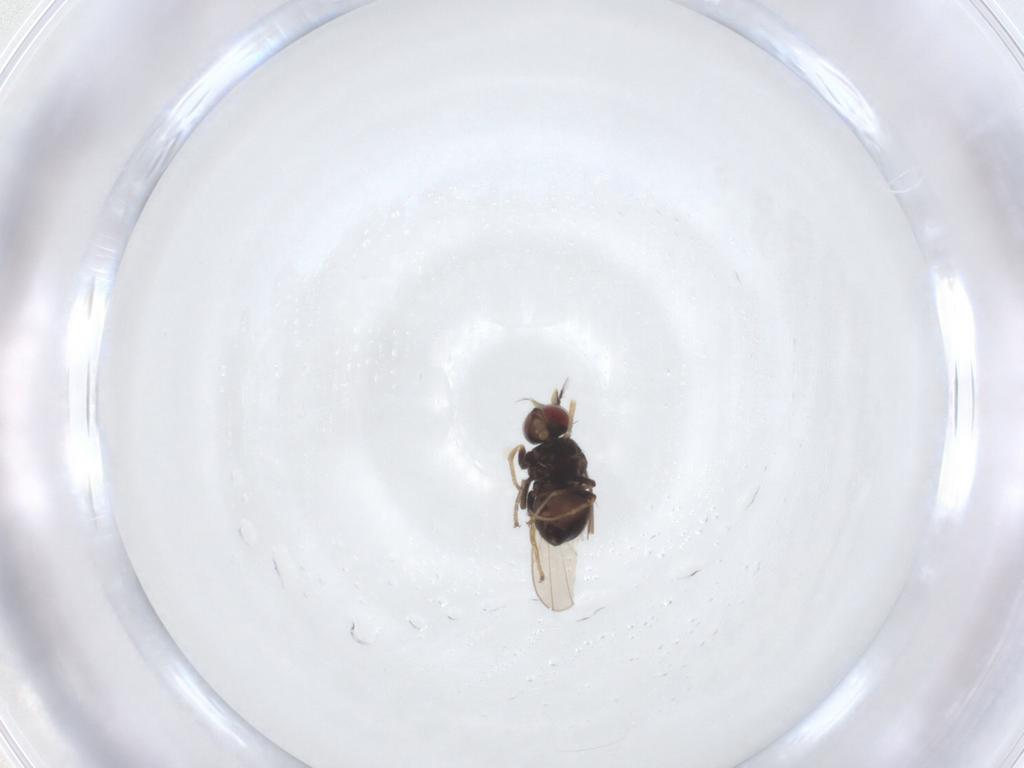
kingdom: Animalia
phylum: Arthropoda
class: Insecta
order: Diptera
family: Ephydridae
